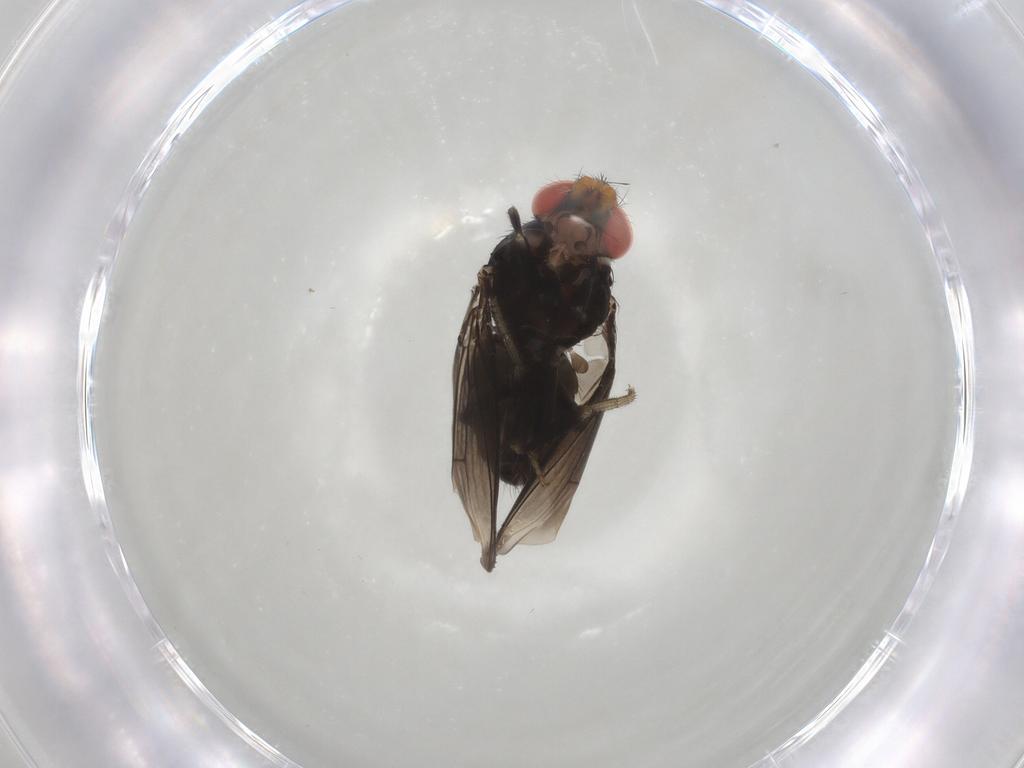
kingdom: Animalia
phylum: Arthropoda
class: Insecta
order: Diptera
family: Drosophilidae
